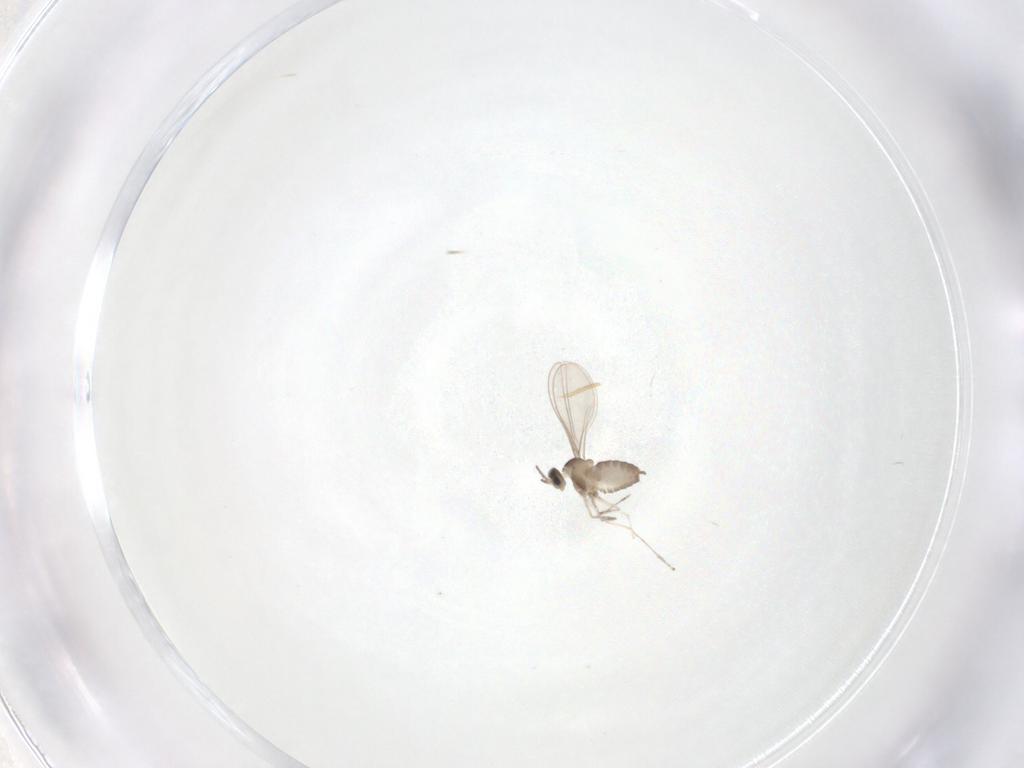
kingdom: Animalia
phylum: Arthropoda
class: Insecta
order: Diptera
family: Cecidomyiidae
